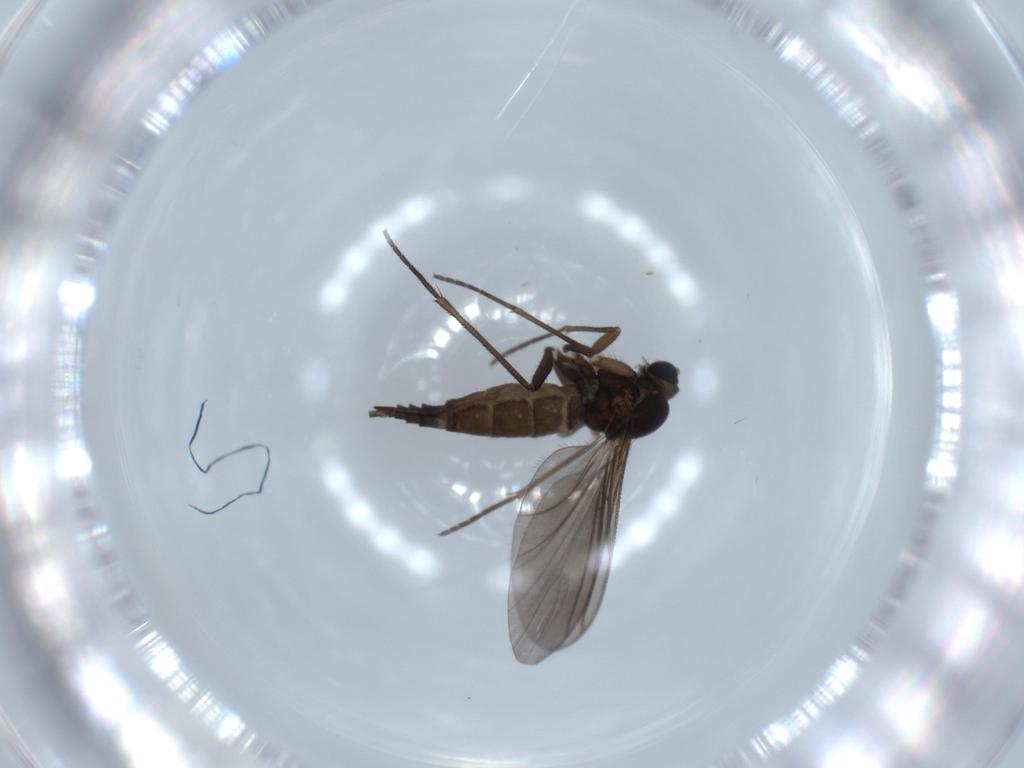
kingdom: Animalia
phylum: Arthropoda
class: Insecta
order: Diptera
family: Sciaridae
